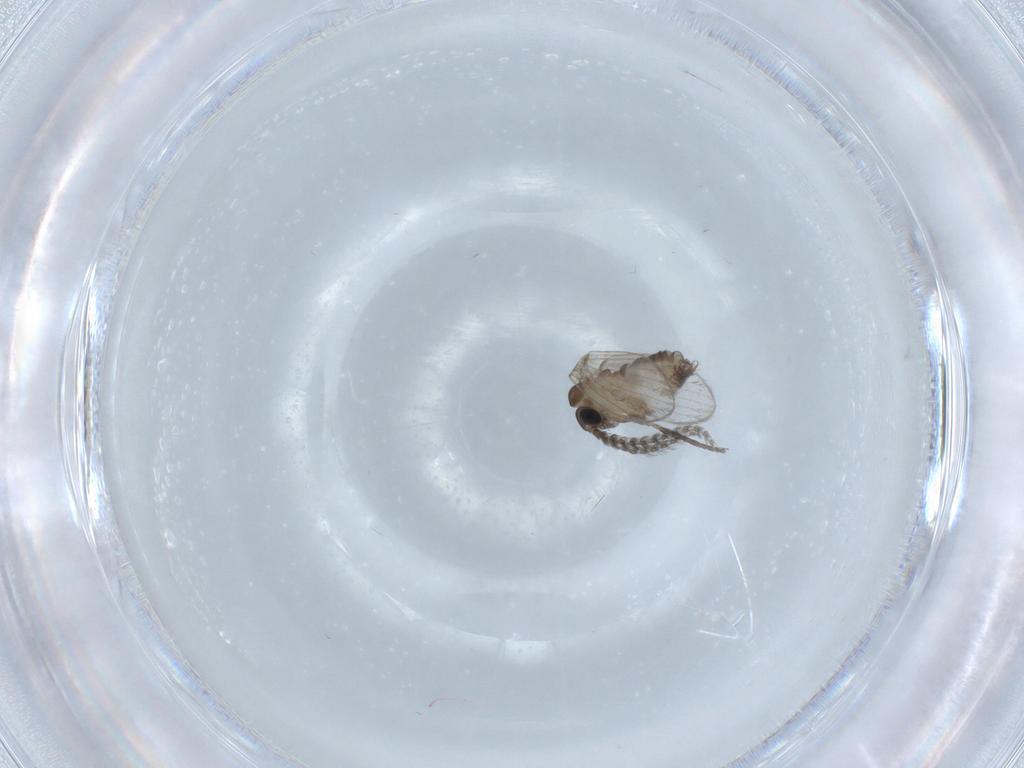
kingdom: Animalia
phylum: Arthropoda
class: Insecta
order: Diptera
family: Psychodidae
